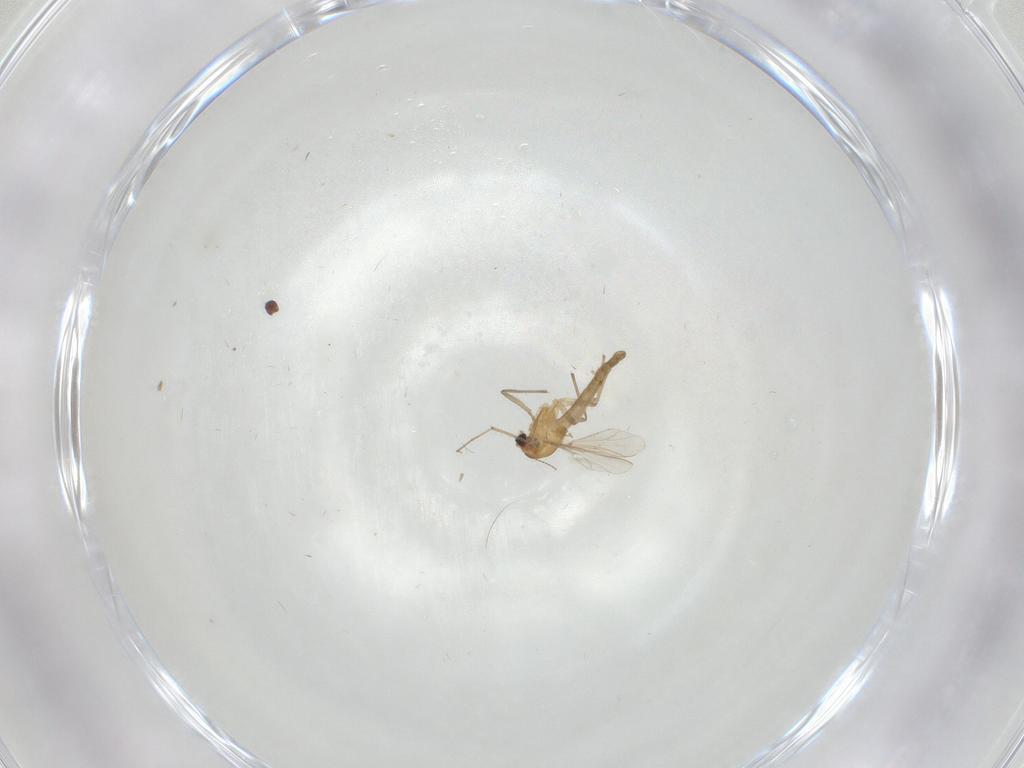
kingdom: Animalia
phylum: Arthropoda
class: Insecta
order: Diptera
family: Chironomidae
